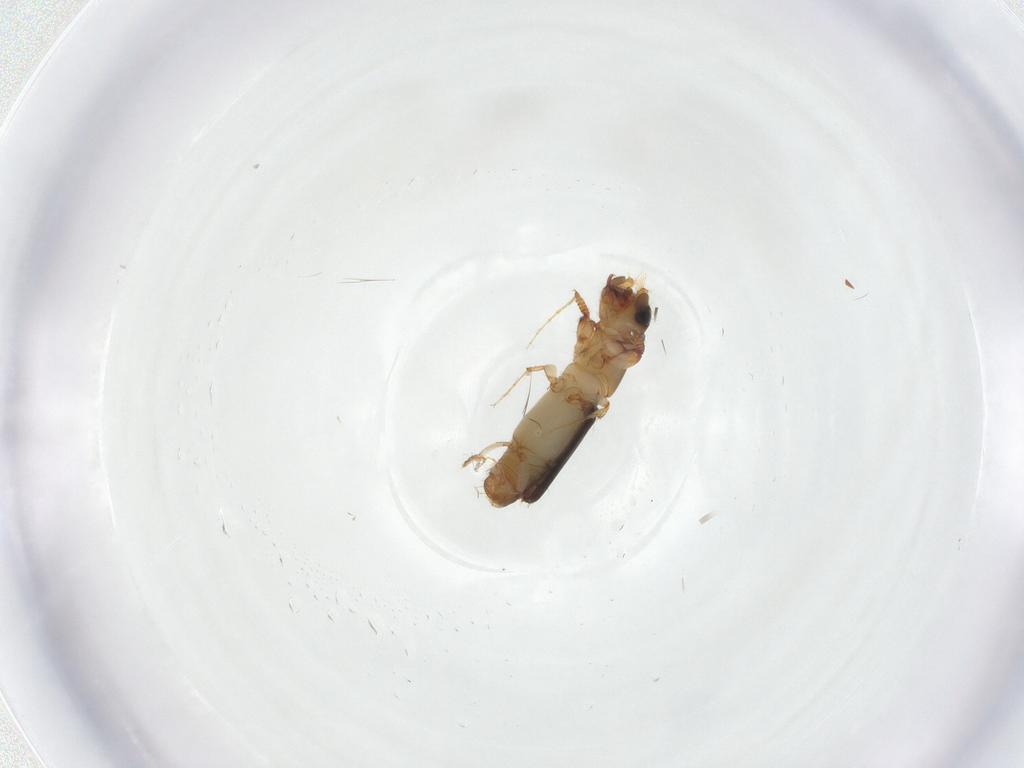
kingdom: Animalia
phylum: Arthropoda
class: Insecta
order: Coleoptera
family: Curculionidae
